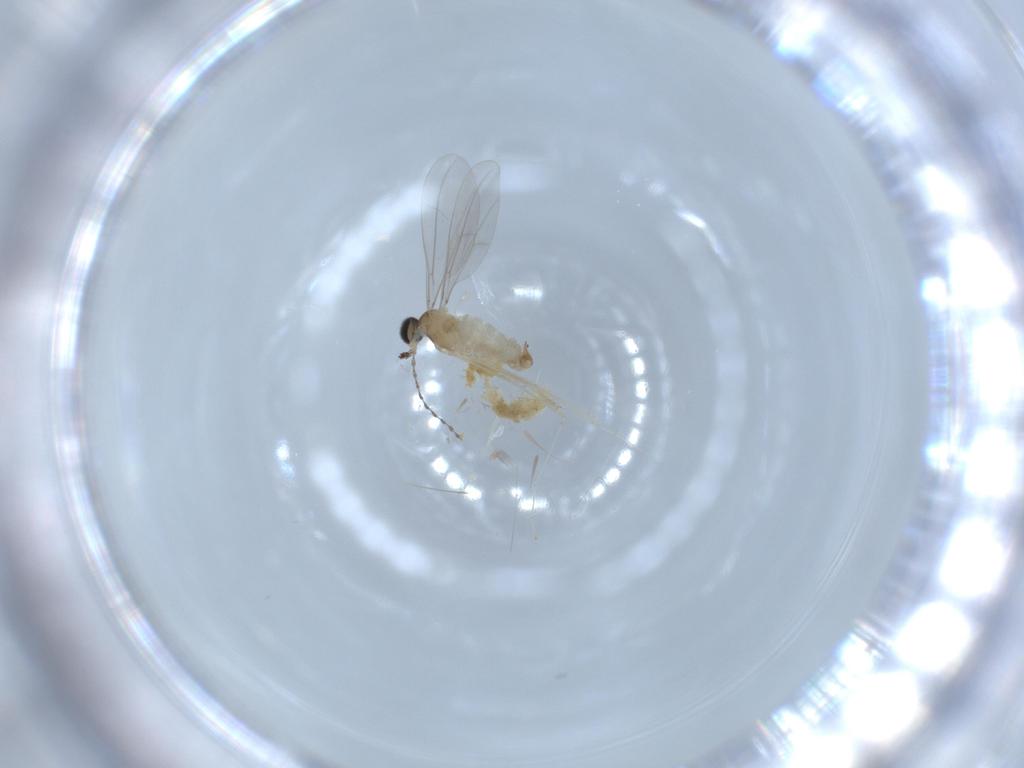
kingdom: Animalia
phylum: Arthropoda
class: Insecta
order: Diptera
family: Cecidomyiidae
